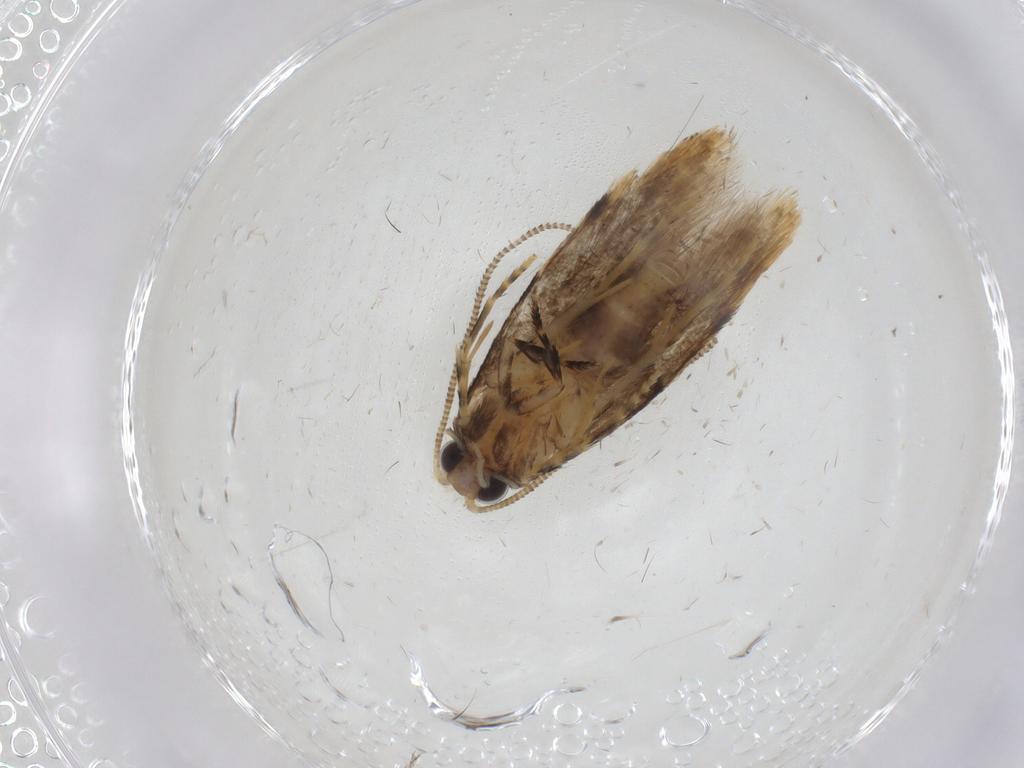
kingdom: Animalia
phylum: Arthropoda
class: Insecta
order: Lepidoptera
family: Meessiidae
